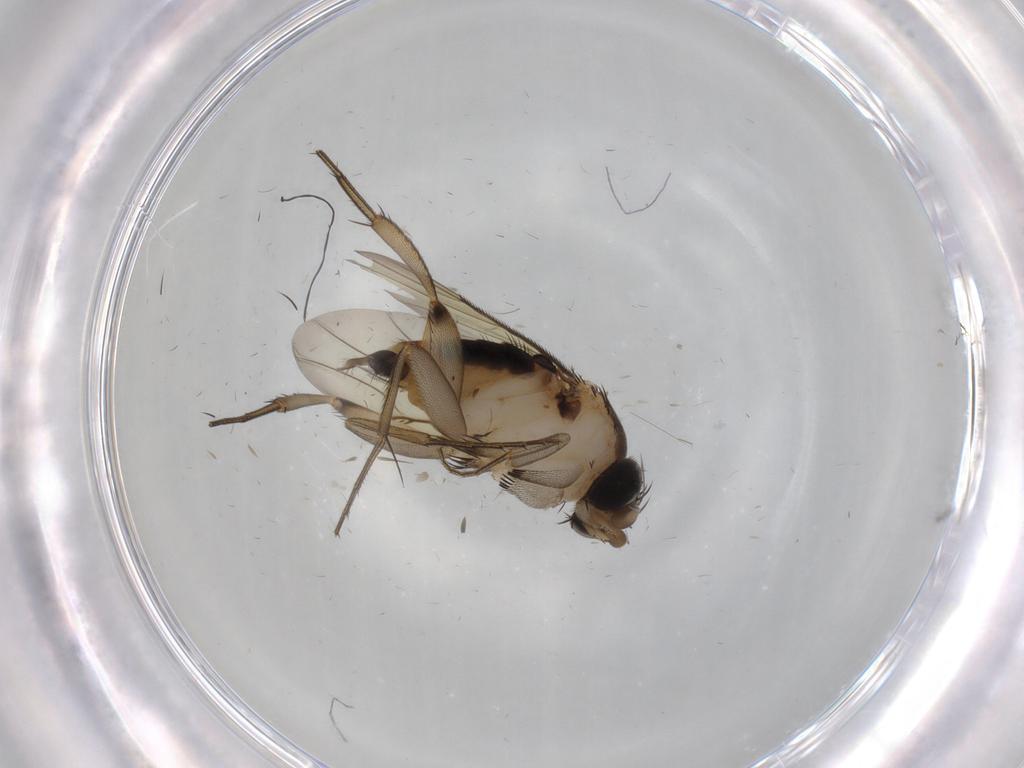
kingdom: Animalia
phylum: Arthropoda
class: Insecta
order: Diptera
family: Phoridae
